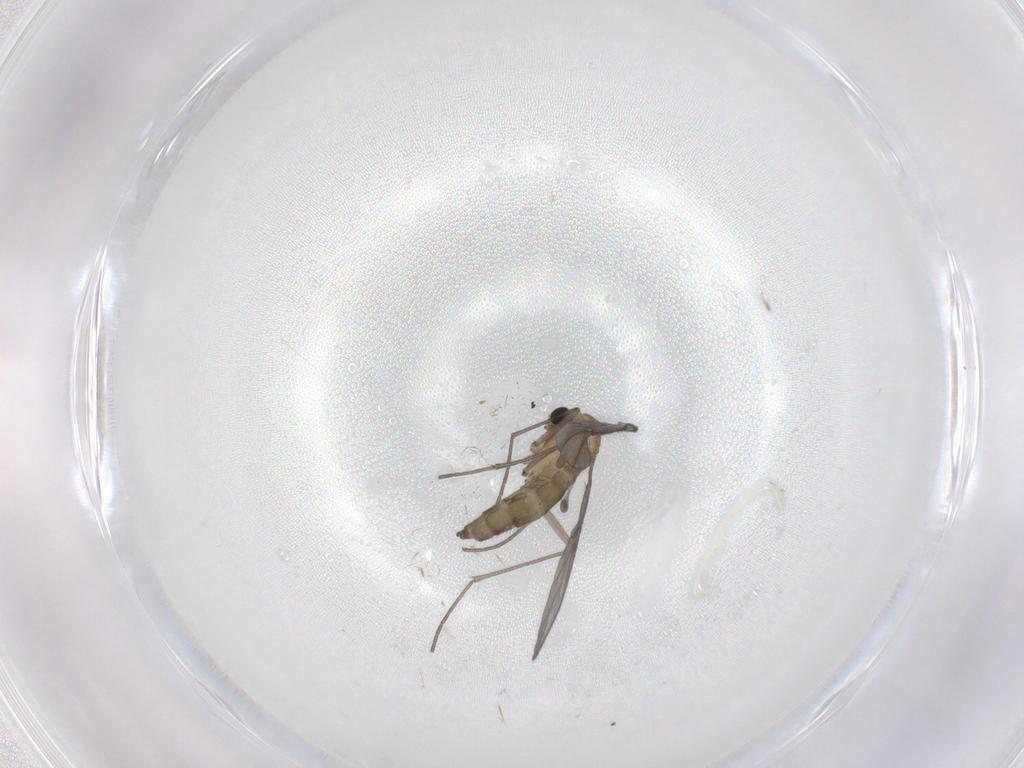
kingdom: Animalia
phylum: Arthropoda
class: Insecta
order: Diptera
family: Sciaridae
